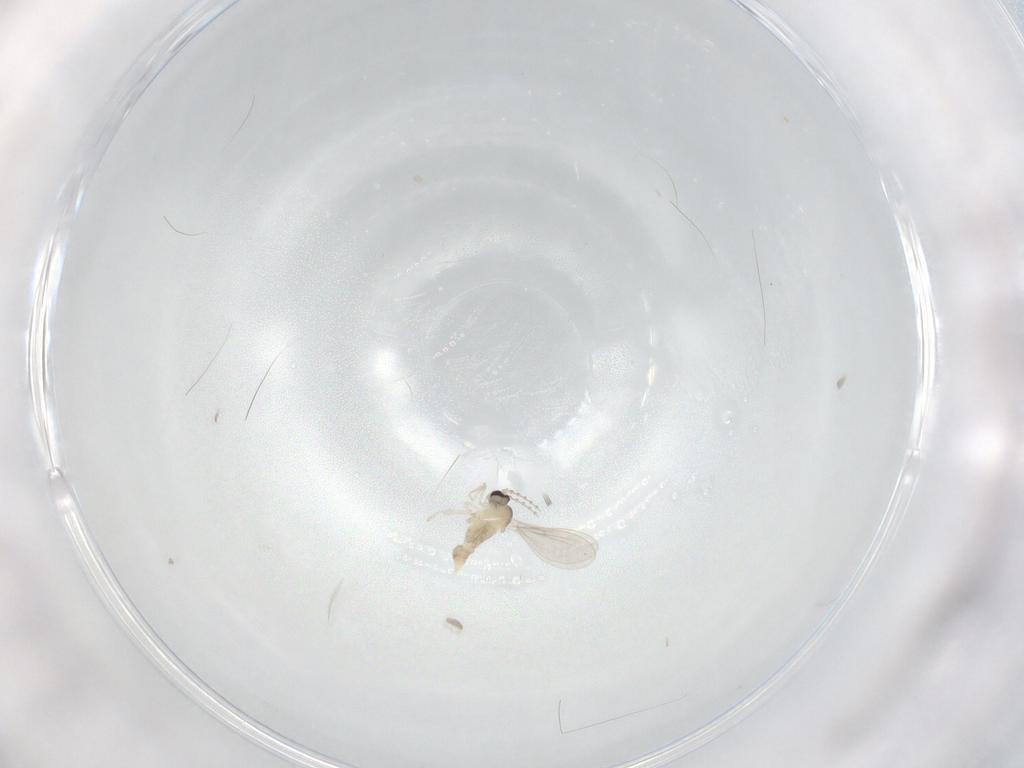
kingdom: Animalia
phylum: Arthropoda
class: Insecta
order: Diptera
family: Cecidomyiidae
